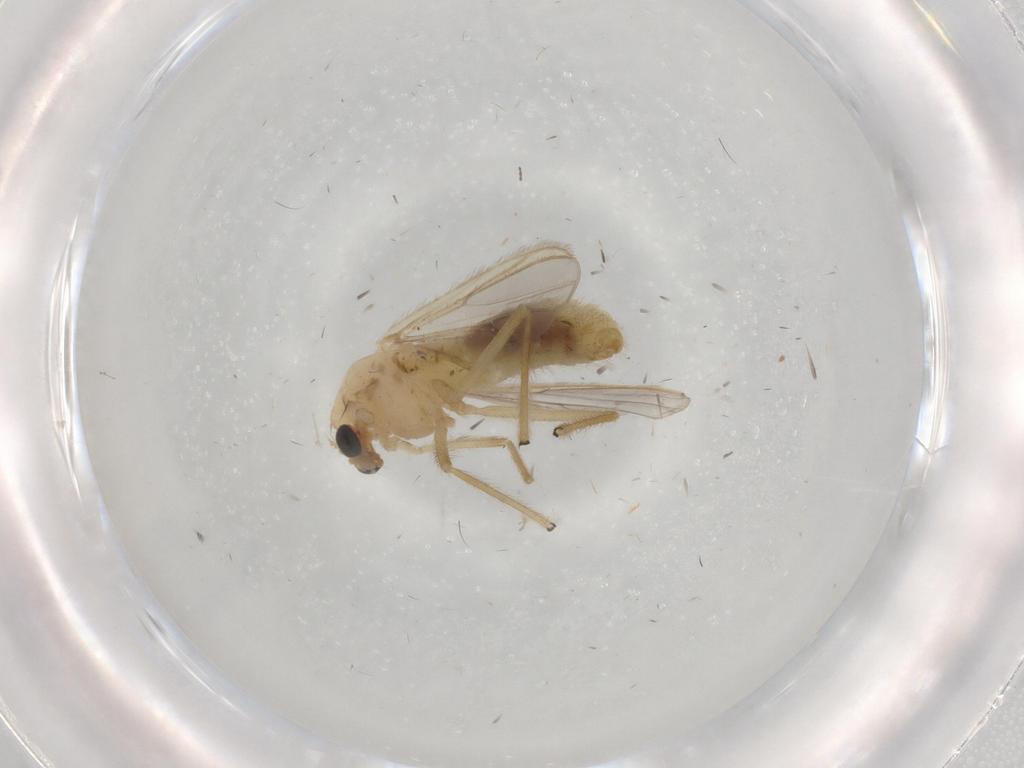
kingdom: Animalia
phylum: Arthropoda
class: Insecta
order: Diptera
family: Chironomidae
